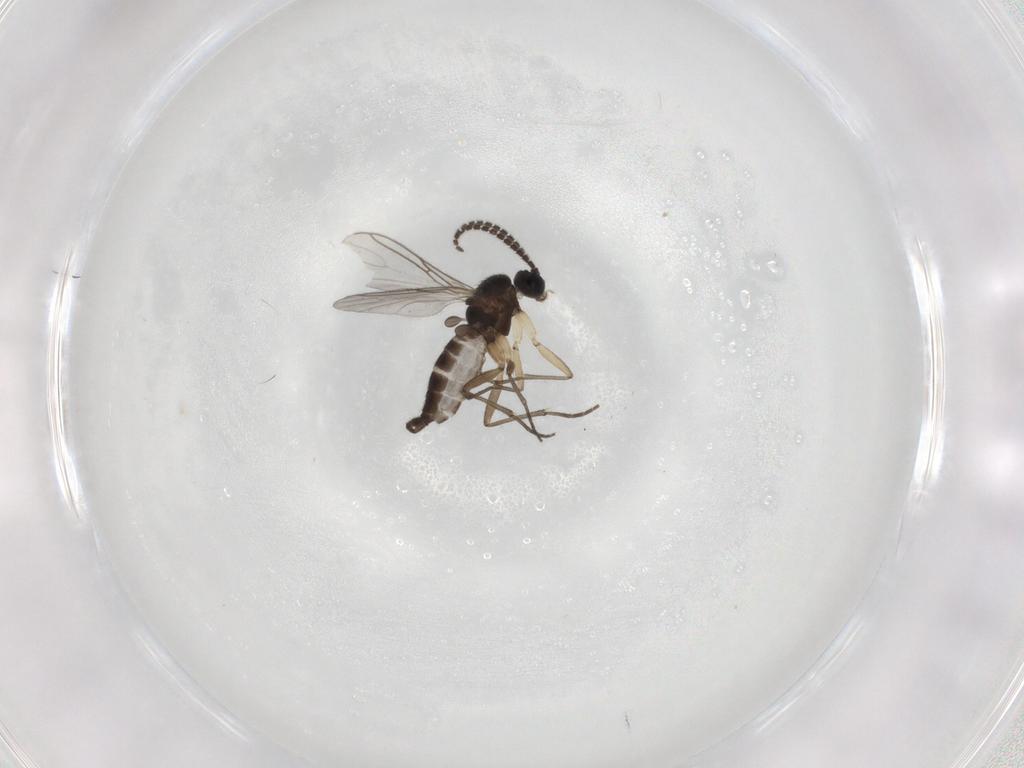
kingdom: Animalia
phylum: Arthropoda
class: Insecta
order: Diptera
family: Sciaridae
